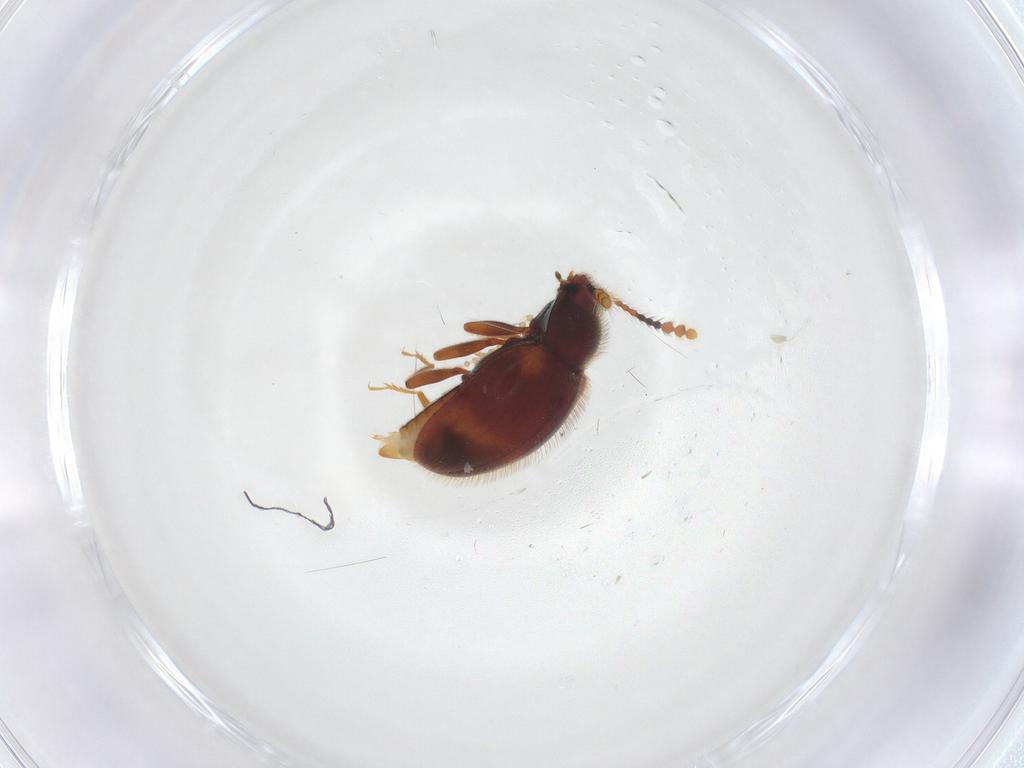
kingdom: Animalia
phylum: Arthropoda
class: Insecta
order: Coleoptera
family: Erotylidae
